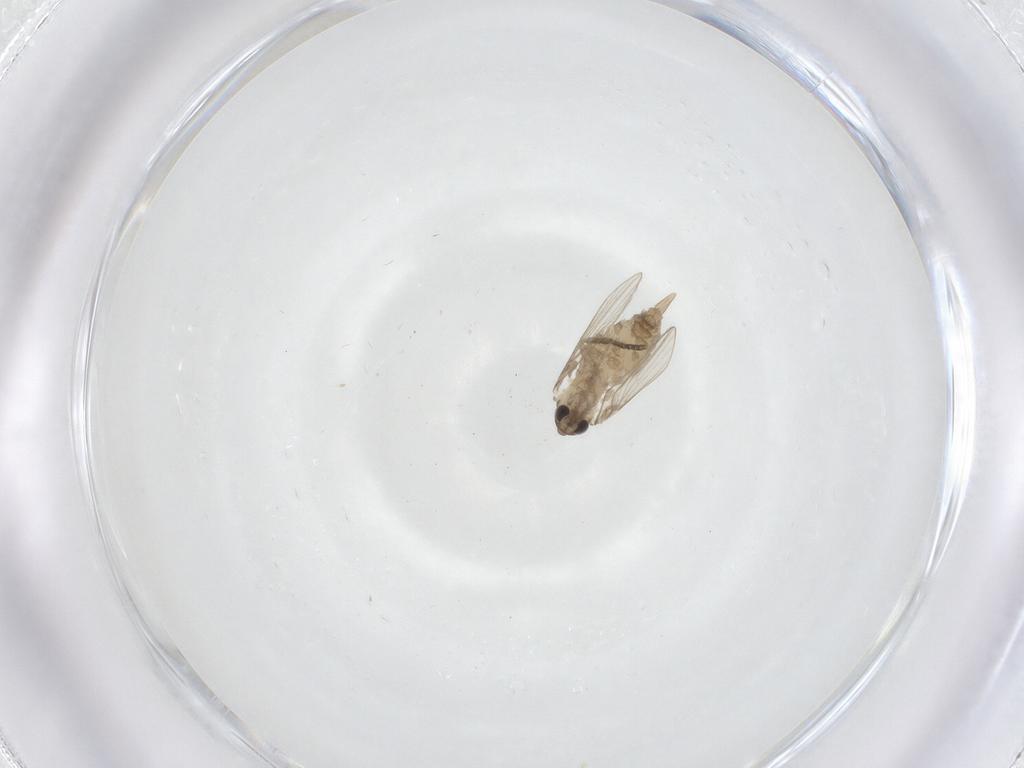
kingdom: Animalia
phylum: Arthropoda
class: Insecta
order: Diptera
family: Psychodidae
